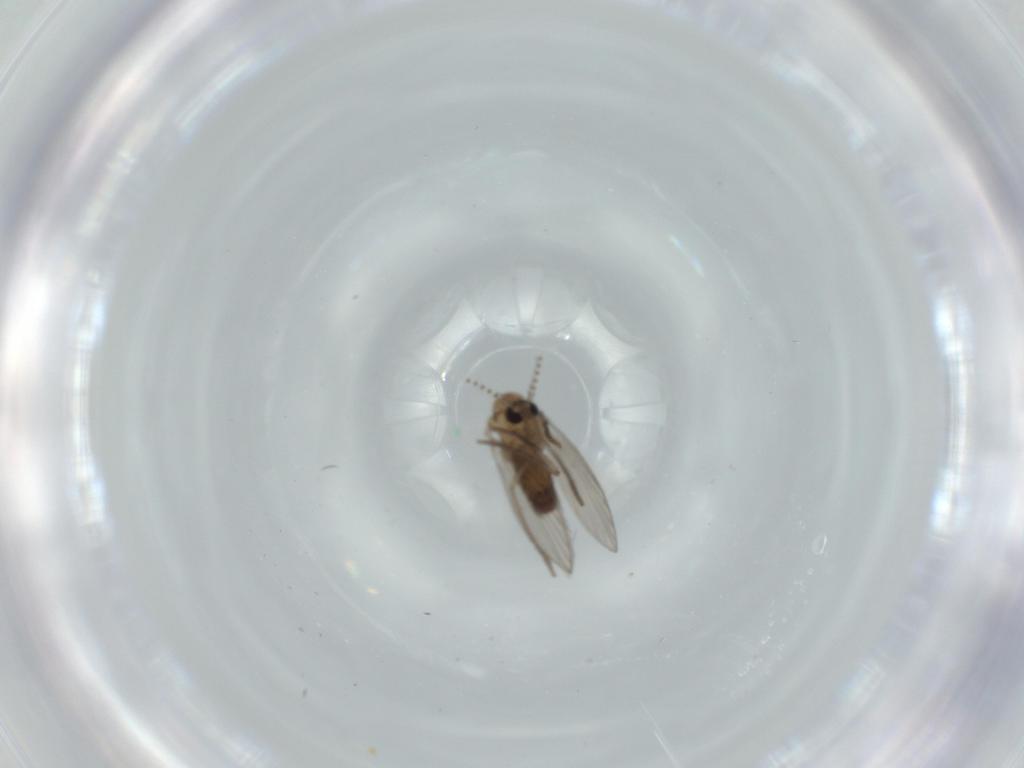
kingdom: Animalia
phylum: Arthropoda
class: Insecta
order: Diptera
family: Psychodidae
